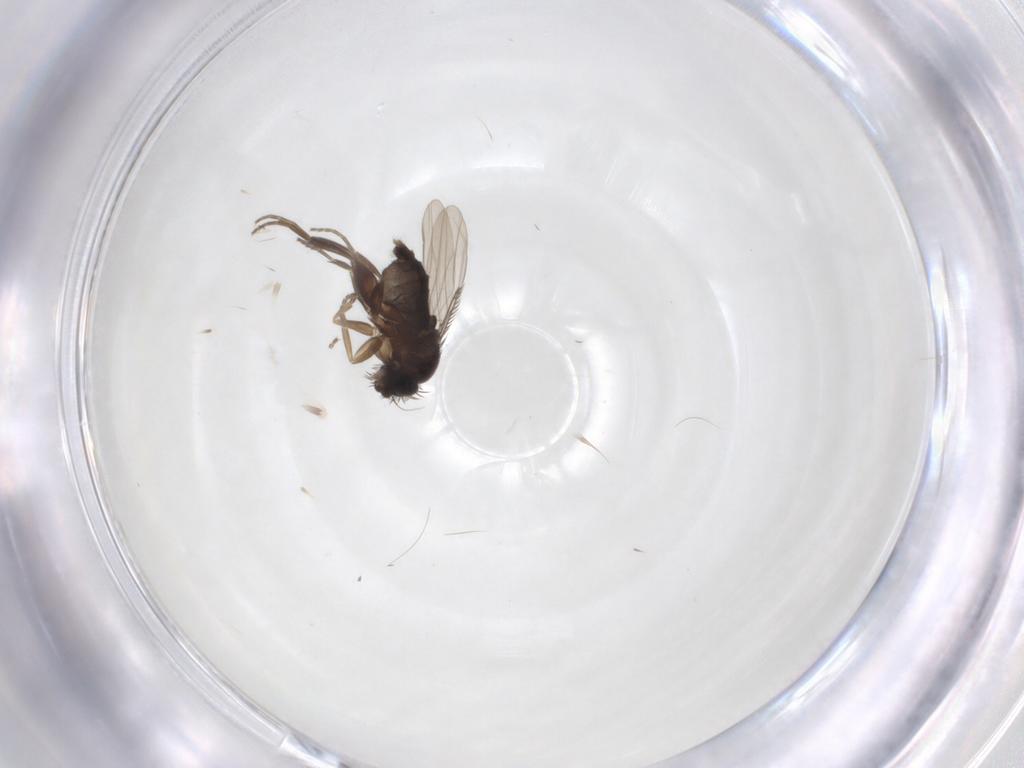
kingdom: Animalia
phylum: Arthropoda
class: Insecta
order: Diptera
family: Phoridae
